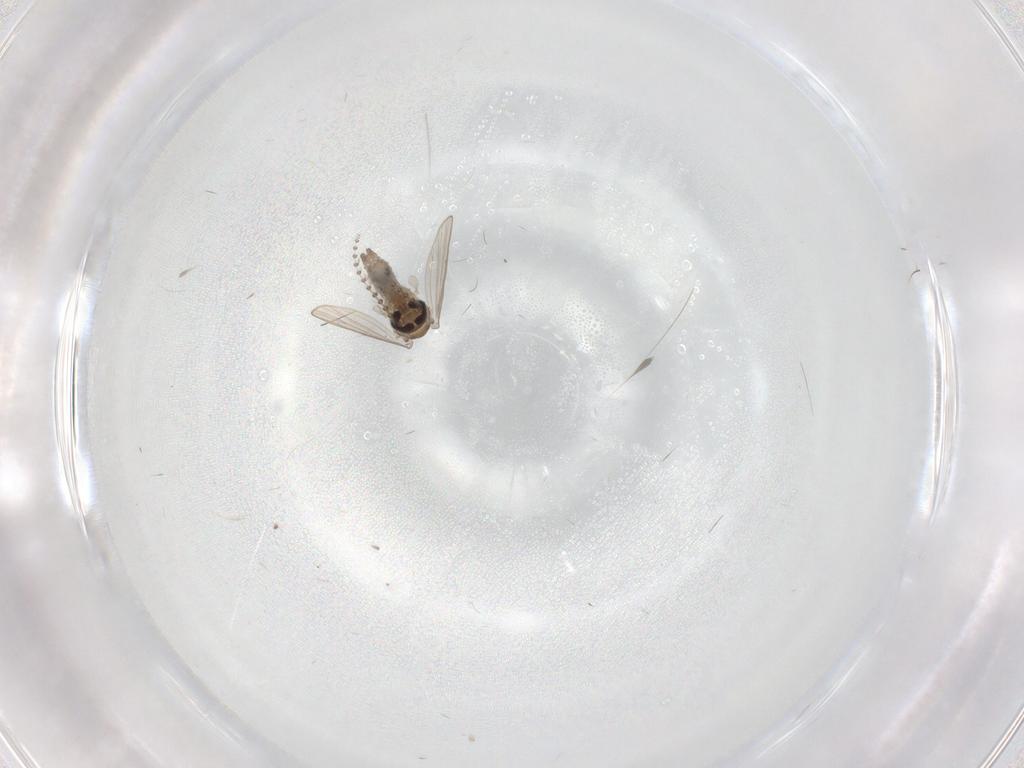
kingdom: Animalia
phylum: Arthropoda
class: Insecta
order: Diptera
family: Psychodidae
